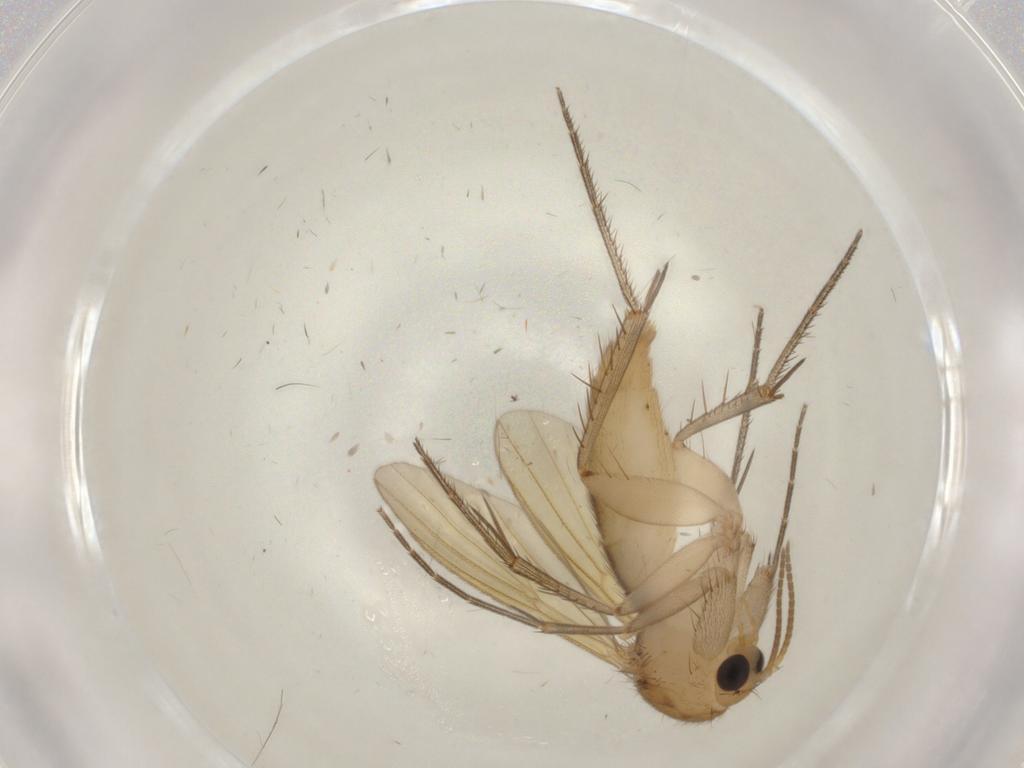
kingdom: Animalia
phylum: Arthropoda
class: Insecta
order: Diptera
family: Mycetophilidae
